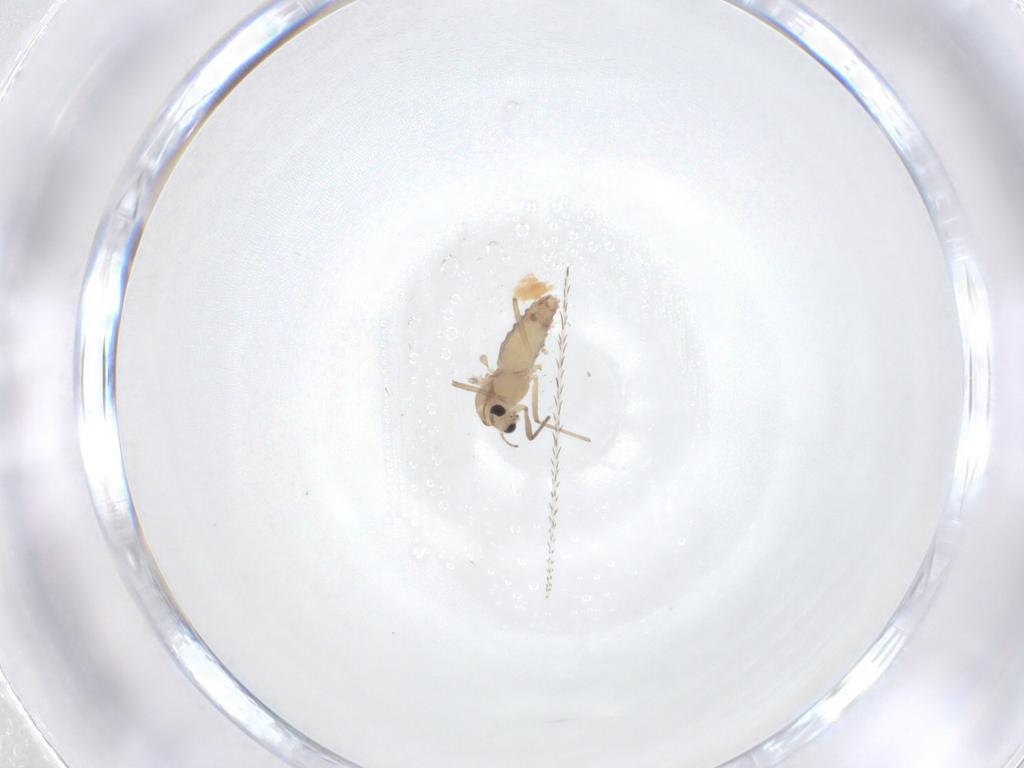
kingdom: Animalia
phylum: Arthropoda
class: Insecta
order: Diptera
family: Chironomidae
